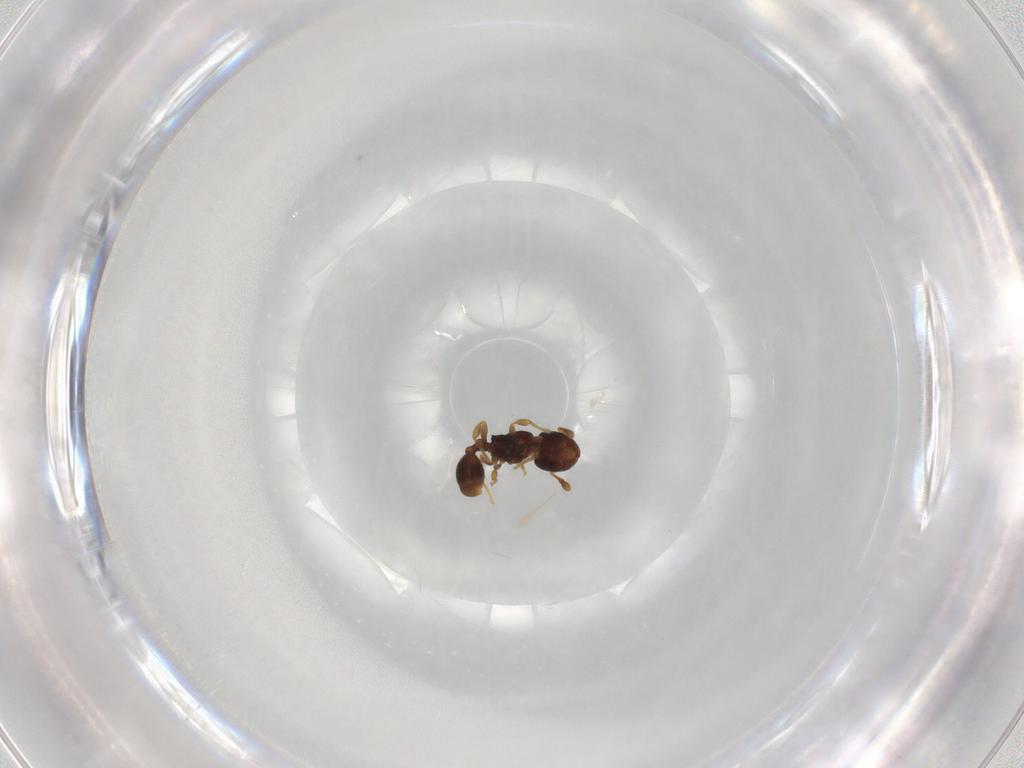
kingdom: Animalia
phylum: Arthropoda
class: Insecta
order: Hymenoptera
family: Formicidae
